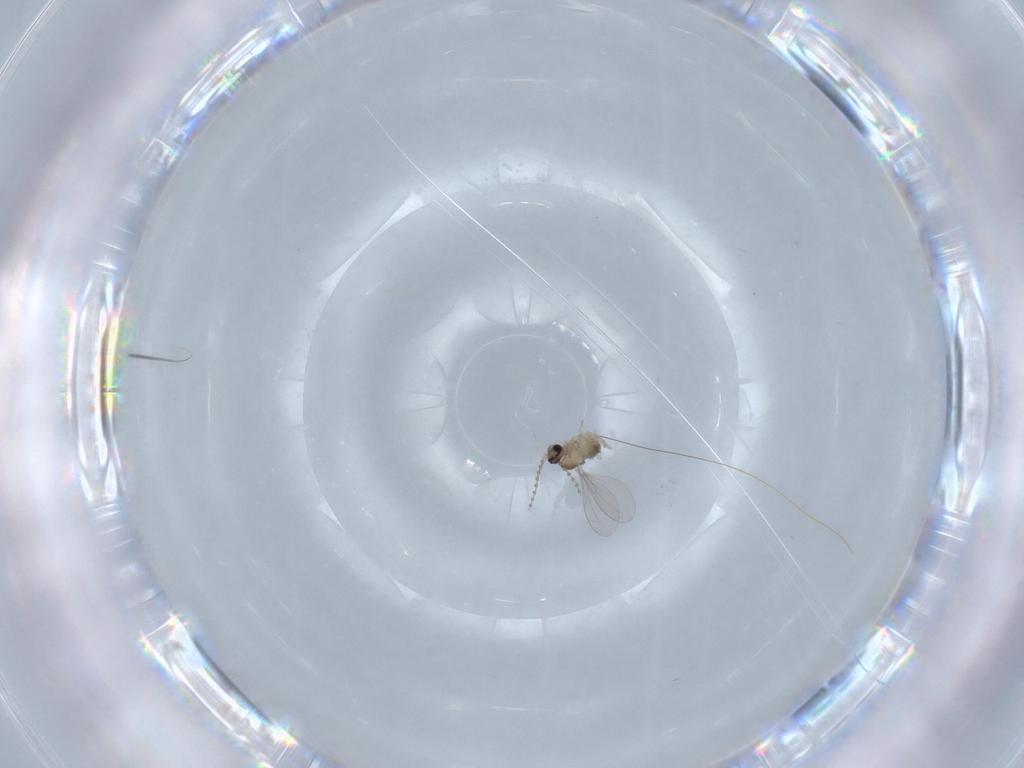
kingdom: Animalia
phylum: Arthropoda
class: Insecta
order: Diptera
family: Cecidomyiidae
